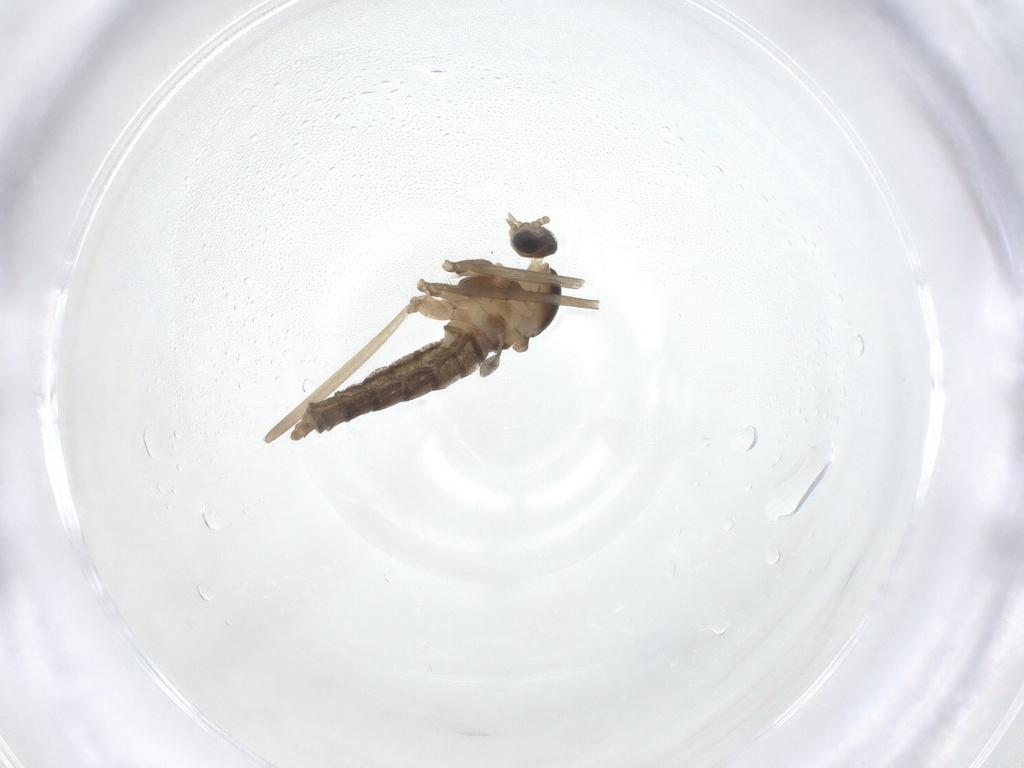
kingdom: Animalia
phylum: Arthropoda
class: Insecta
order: Diptera
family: Cecidomyiidae
